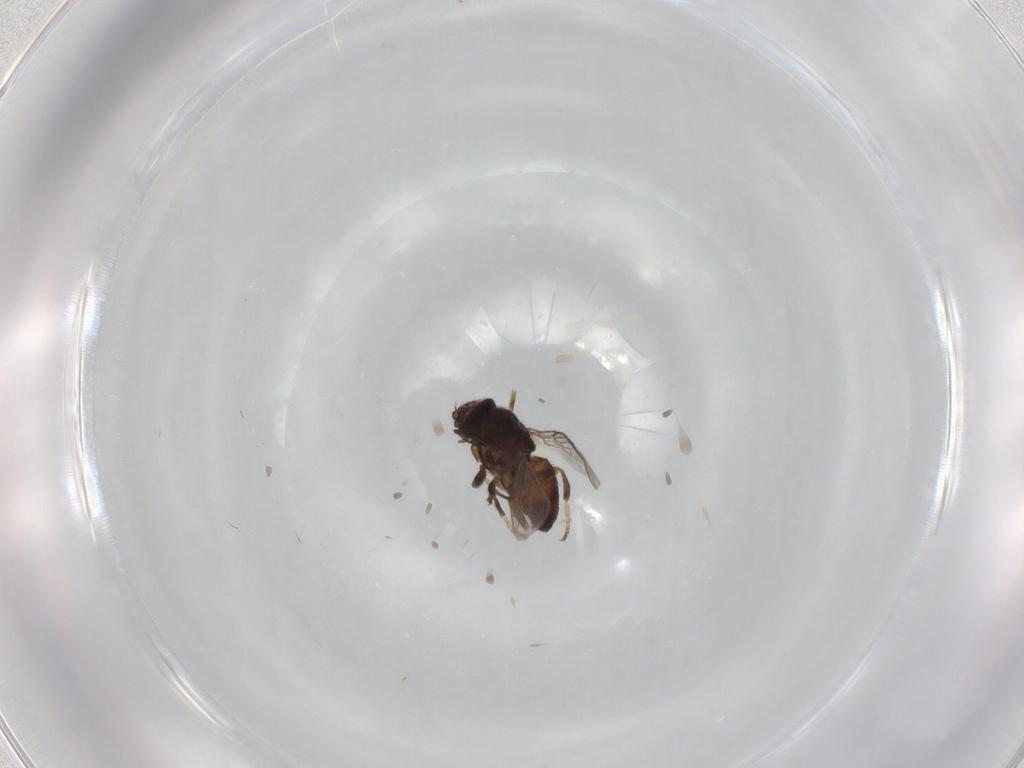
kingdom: Animalia
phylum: Arthropoda
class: Insecta
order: Diptera
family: Chloropidae
